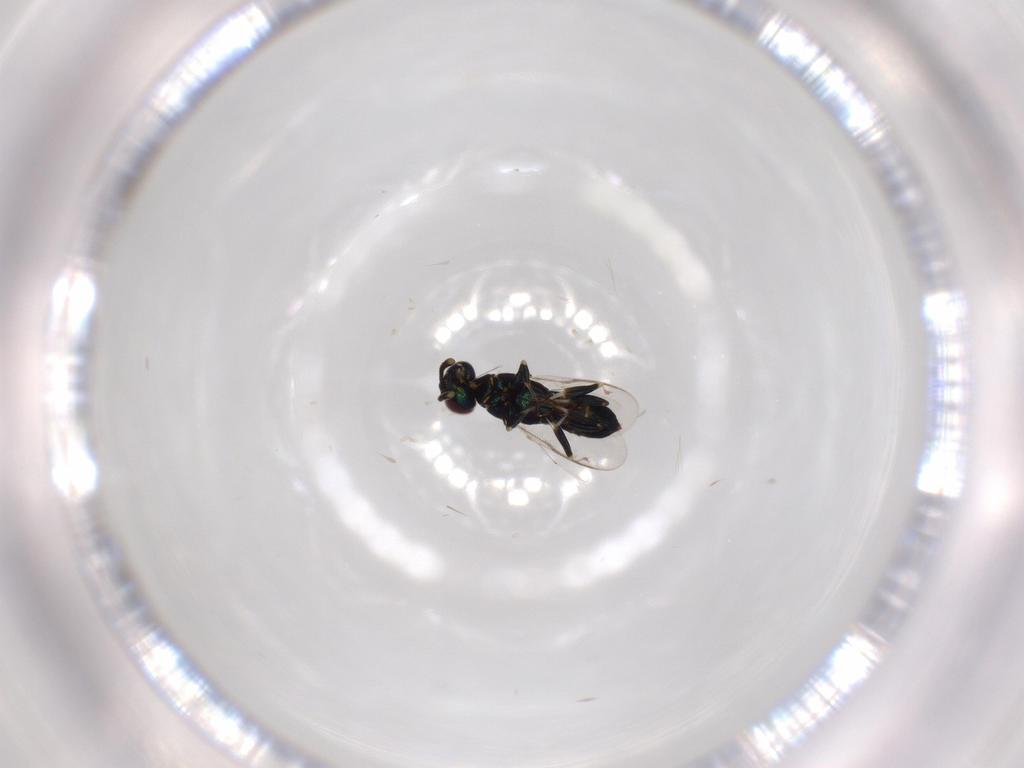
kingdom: Animalia
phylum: Arthropoda
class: Insecta
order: Hymenoptera
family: Eupelmidae
